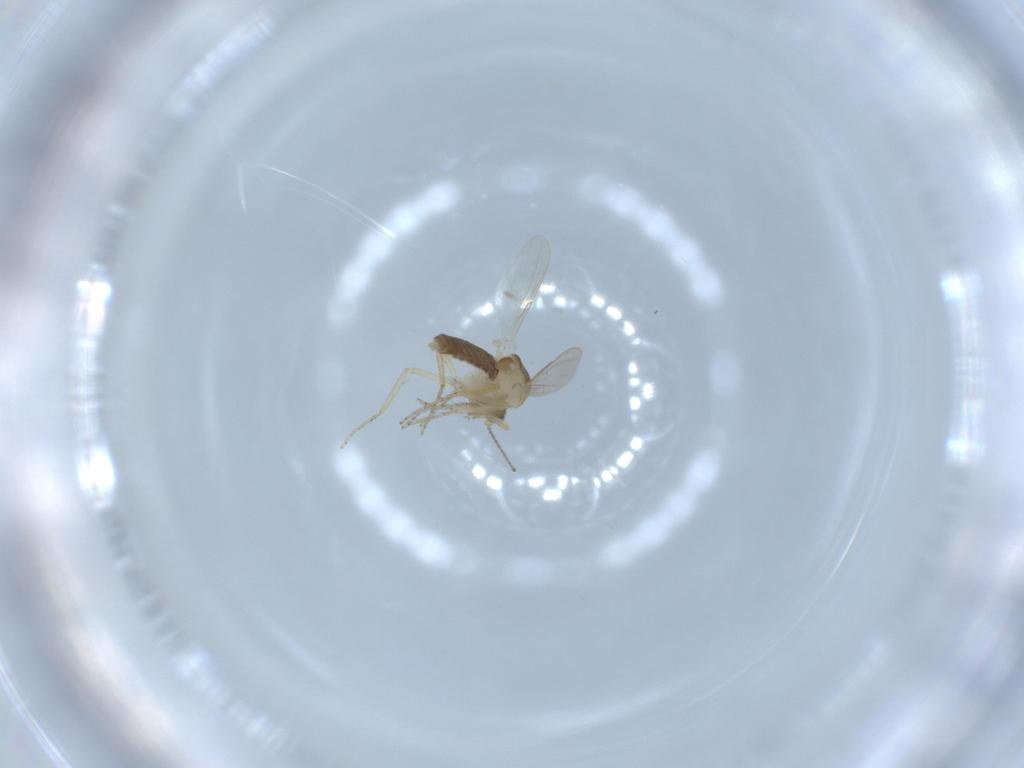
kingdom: Animalia
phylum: Arthropoda
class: Insecta
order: Diptera
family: Ceratopogonidae
